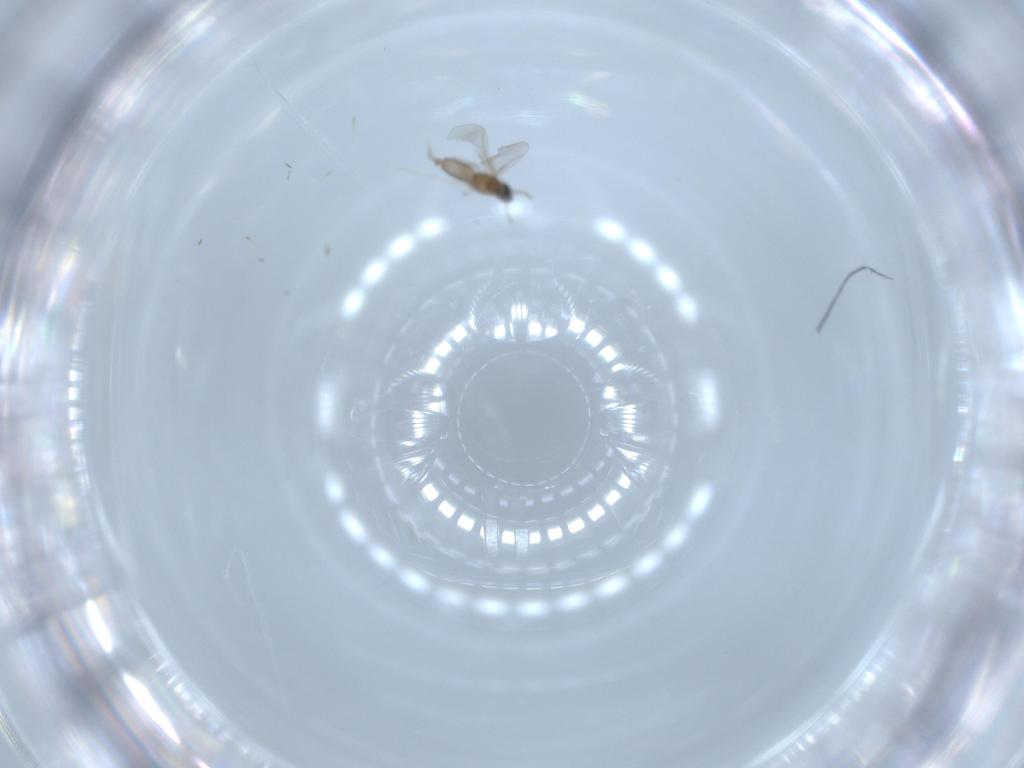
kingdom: Animalia
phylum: Arthropoda
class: Insecta
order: Diptera
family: Cecidomyiidae
